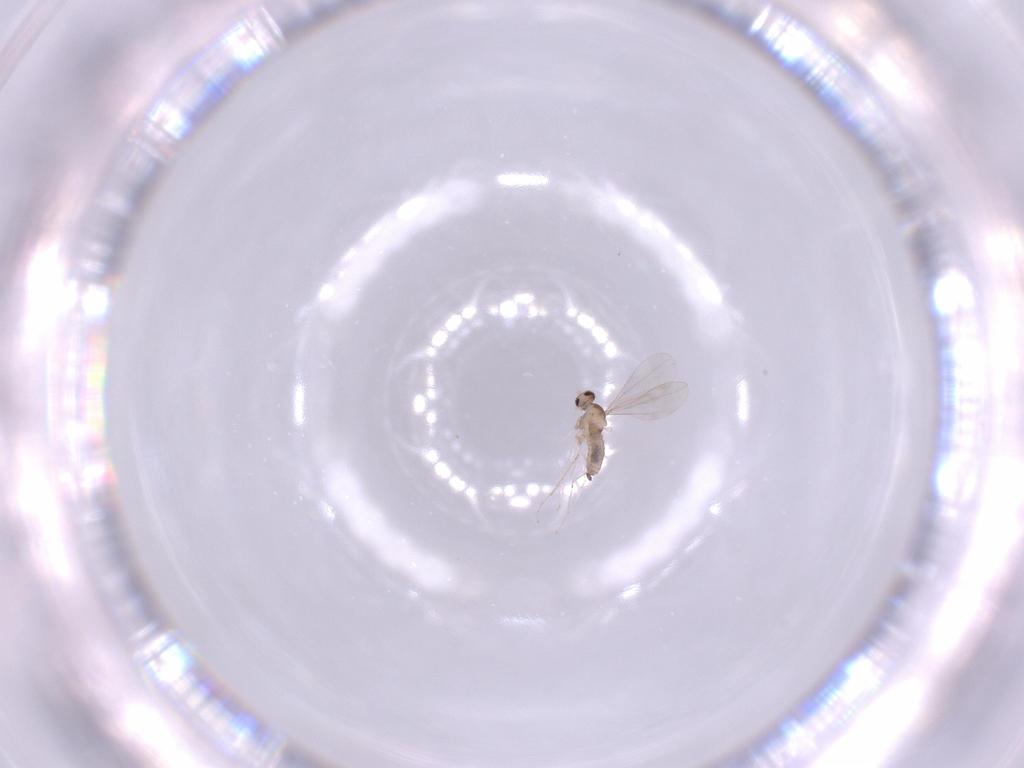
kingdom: Animalia
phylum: Arthropoda
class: Insecta
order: Diptera
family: Cecidomyiidae
